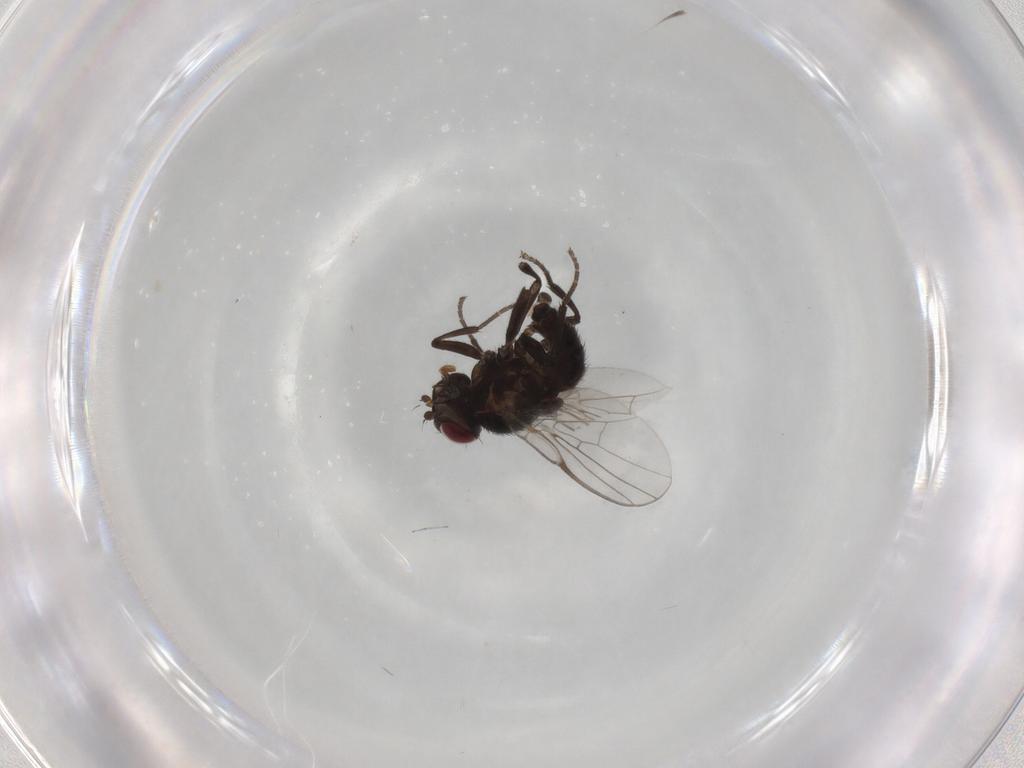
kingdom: Animalia
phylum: Arthropoda
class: Insecta
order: Diptera
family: Agromyzidae
